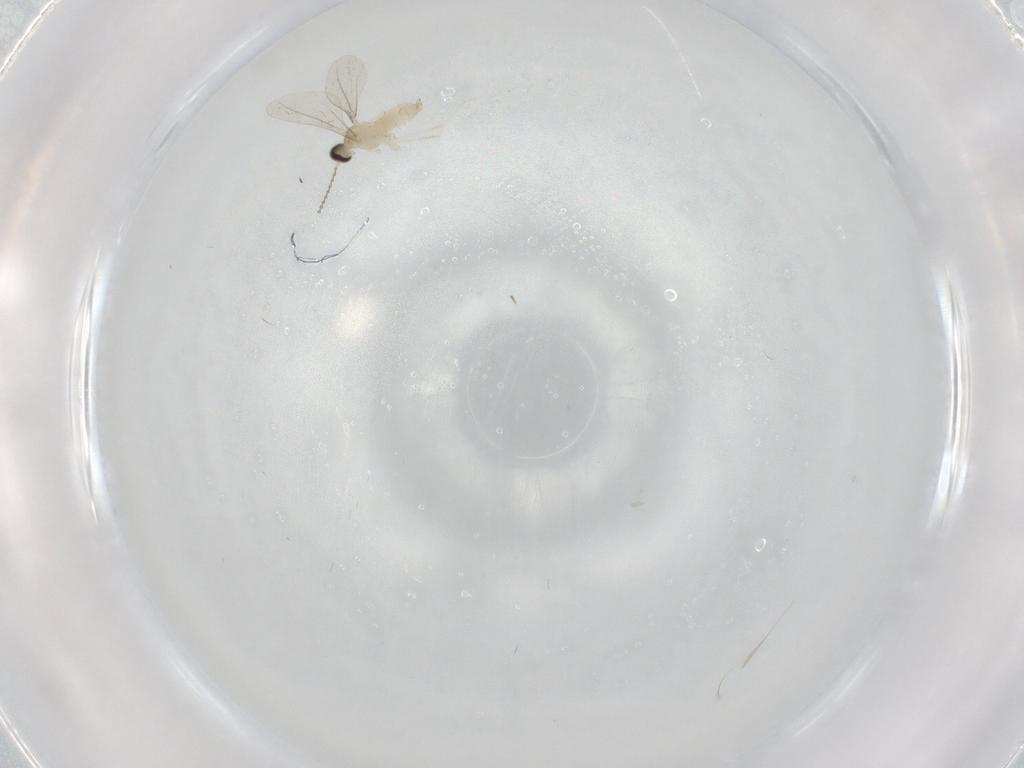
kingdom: Animalia
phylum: Arthropoda
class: Insecta
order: Diptera
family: Cecidomyiidae
